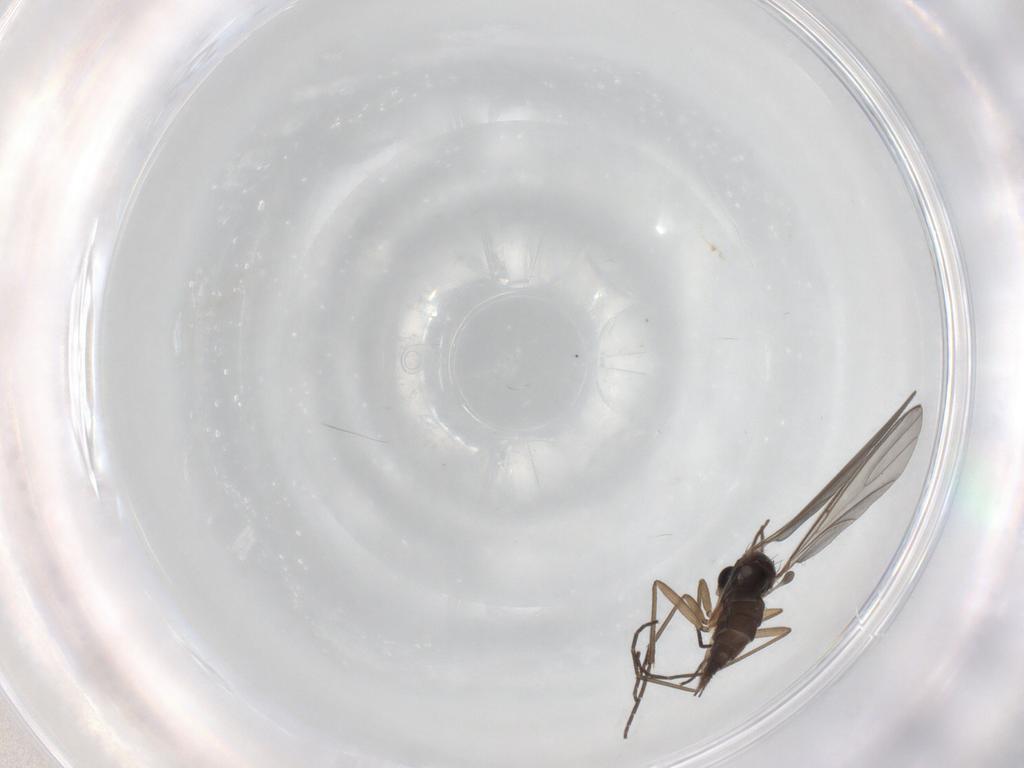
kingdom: Animalia
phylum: Arthropoda
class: Insecta
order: Diptera
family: Sciaridae
